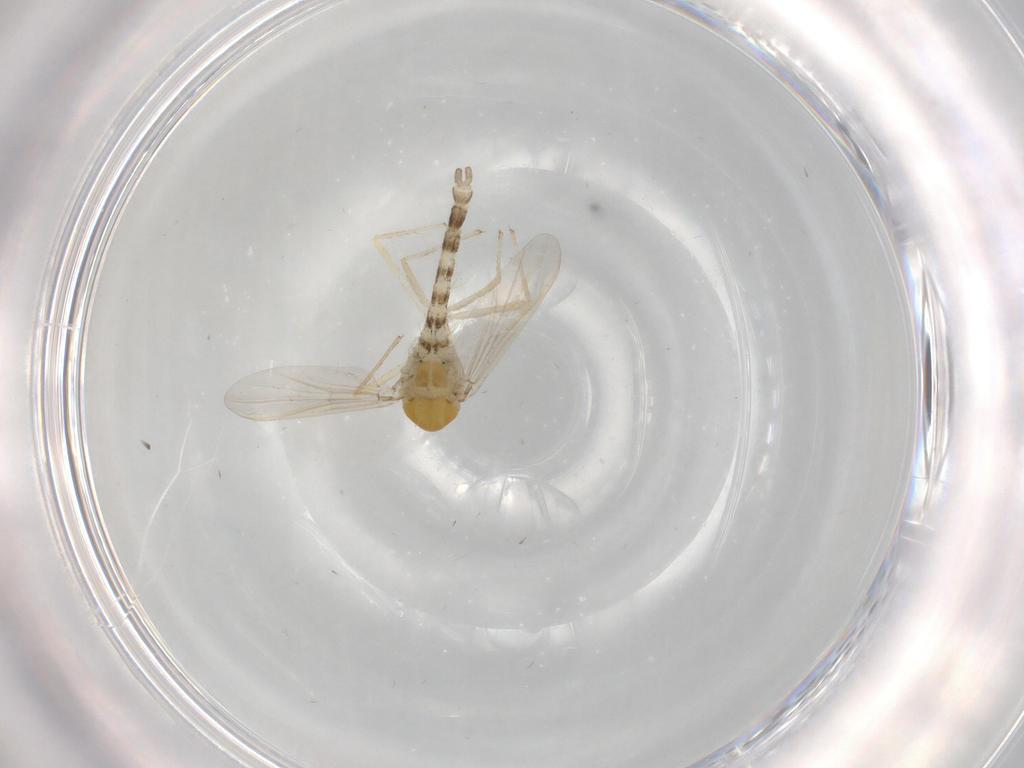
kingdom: Animalia
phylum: Arthropoda
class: Insecta
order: Diptera
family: Chironomidae
